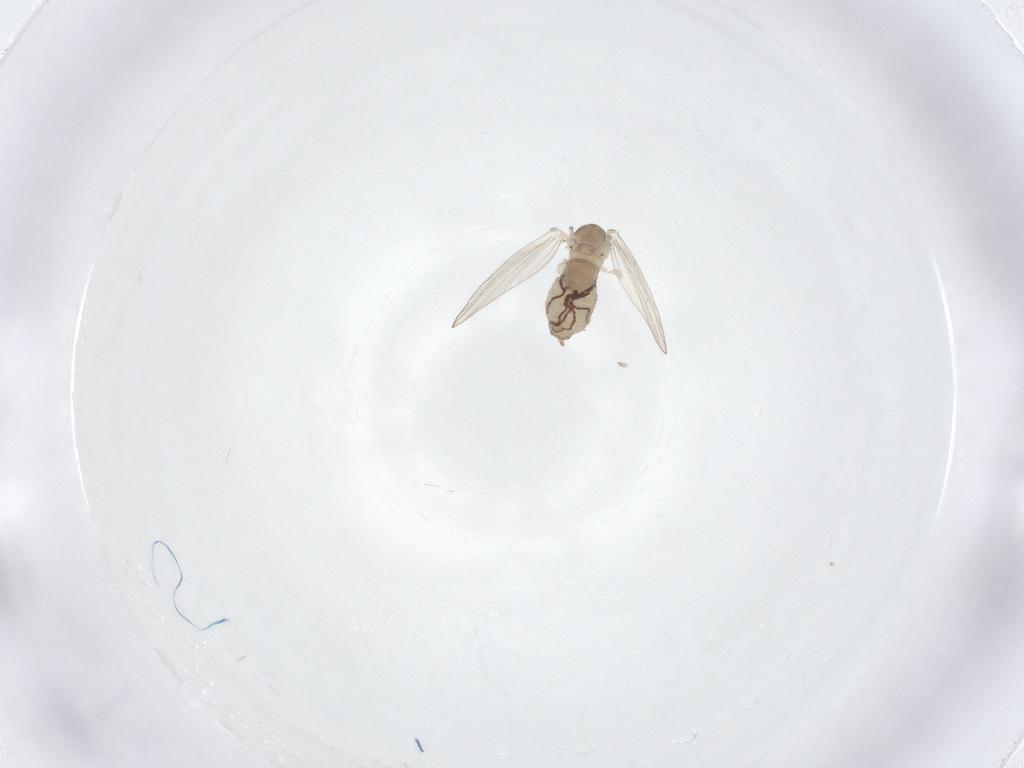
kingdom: Animalia
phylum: Arthropoda
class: Insecta
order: Diptera
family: Psychodidae
